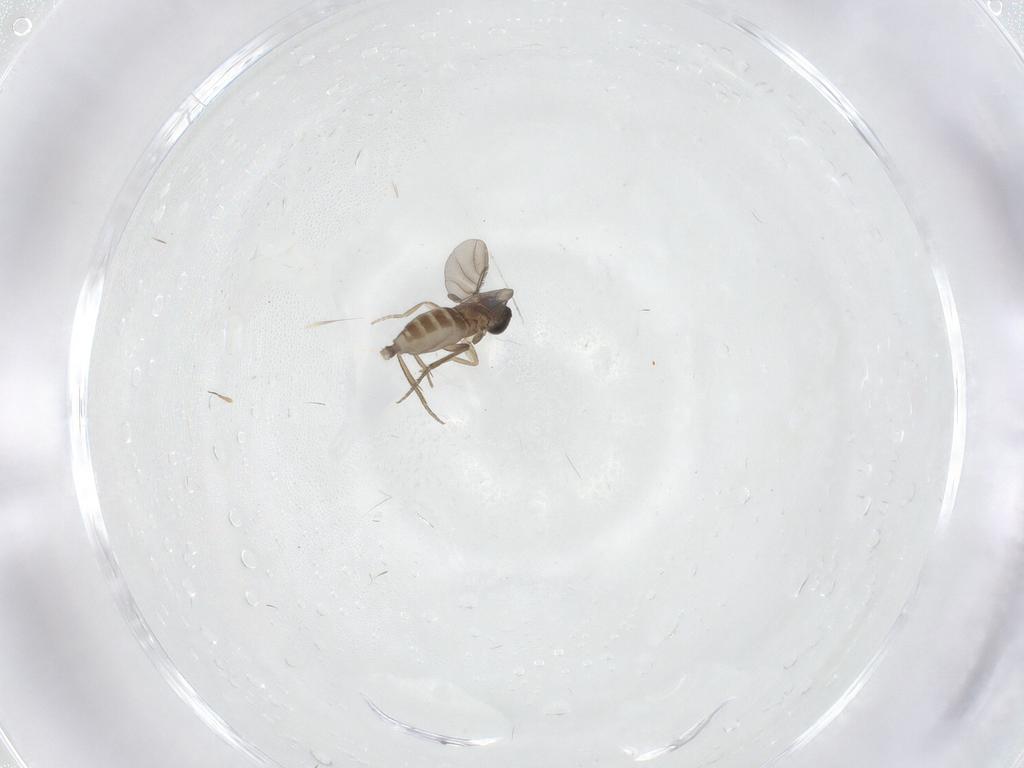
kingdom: Animalia
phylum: Arthropoda
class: Insecta
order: Diptera
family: Phoridae
